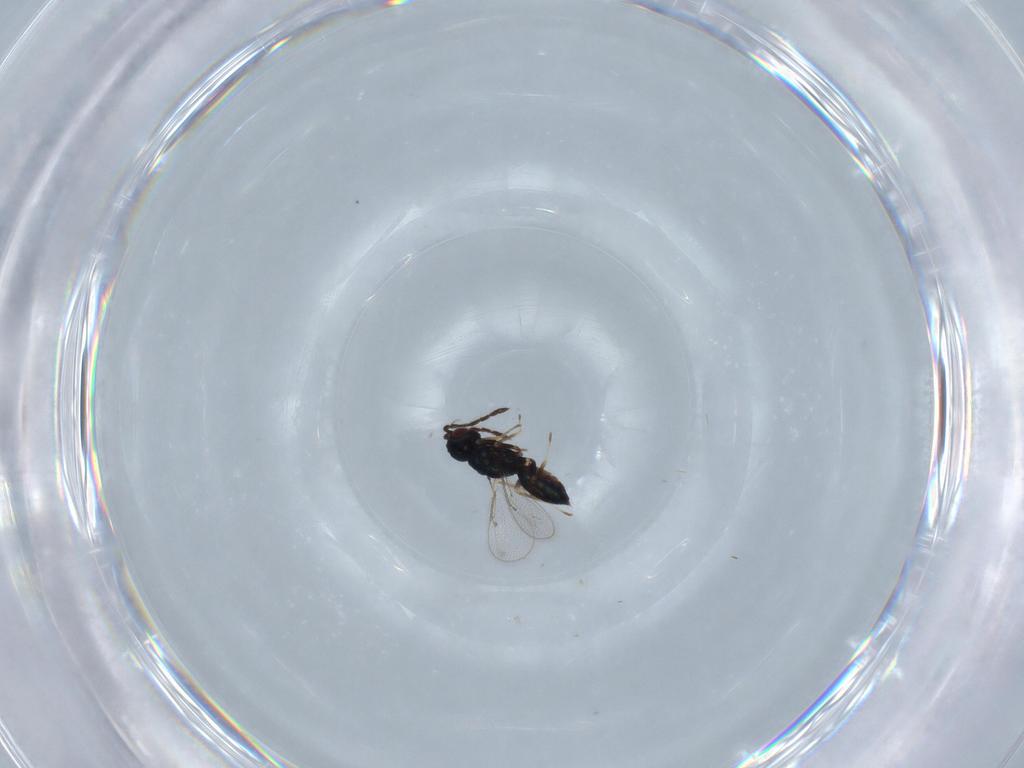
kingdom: Animalia
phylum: Arthropoda
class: Insecta
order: Hymenoptera
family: Eulophidae
